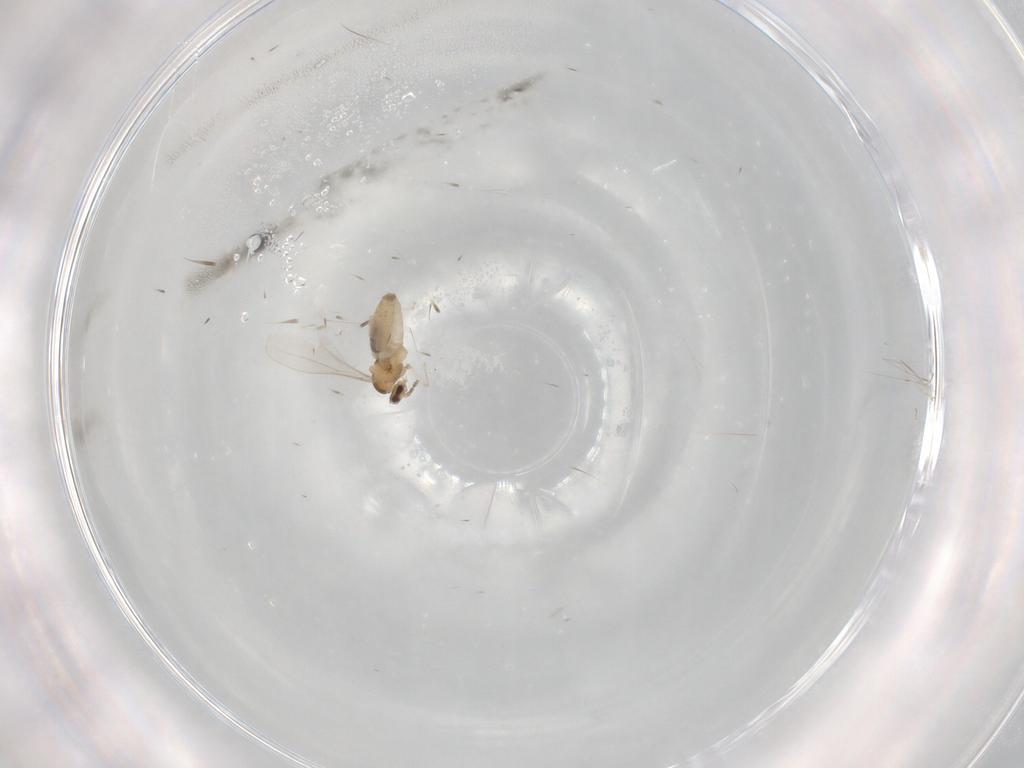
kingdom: Animalia
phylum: Arthropoda
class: Insecta
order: Diptera
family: Cecidomyiidae
